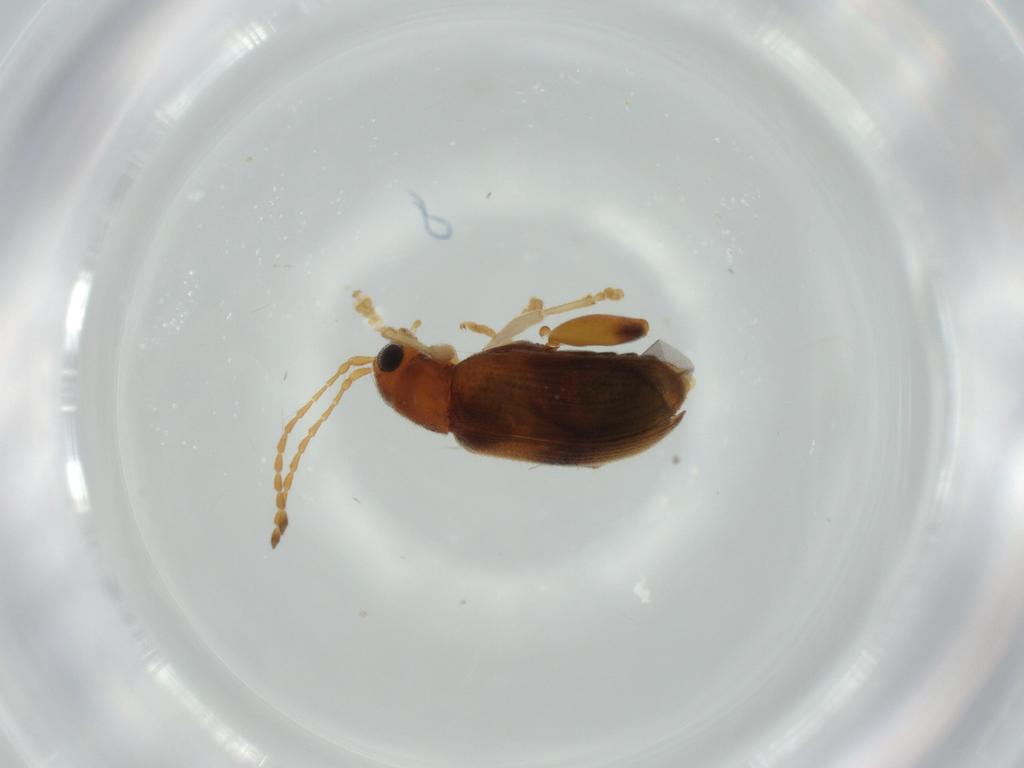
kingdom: Animalia
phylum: Arthropoda
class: Insecta
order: Coleoptera
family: Chrysomelidae
